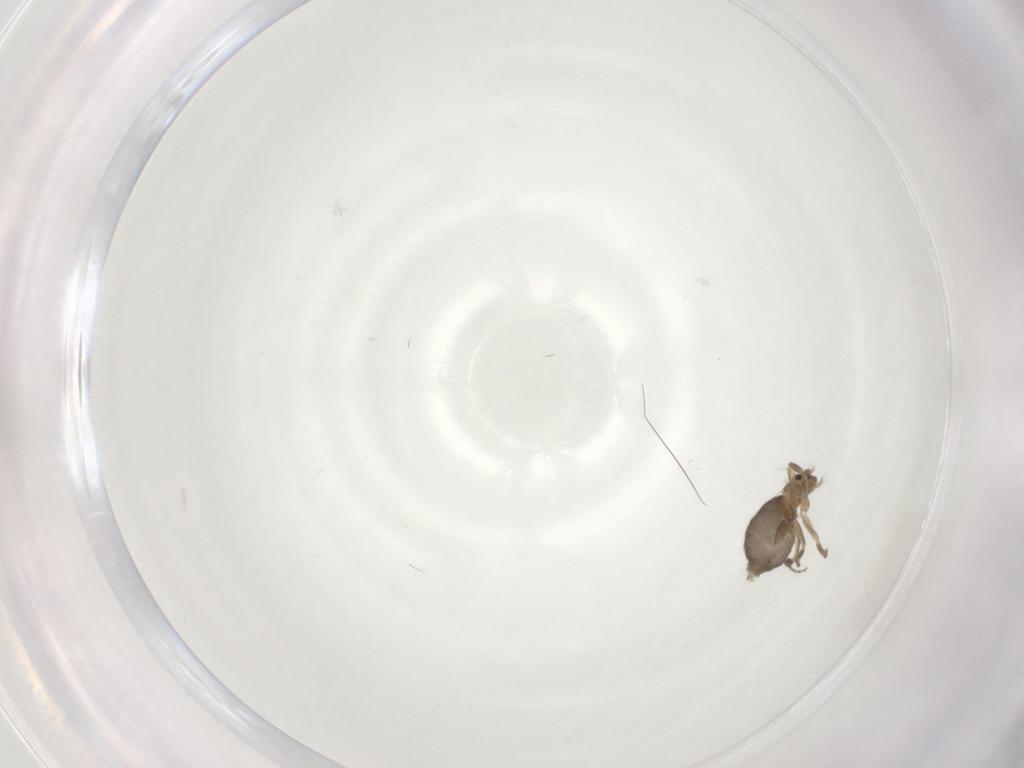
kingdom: Animalia
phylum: Arthropoda
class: Insecta
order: Diptera
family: Phoridae
